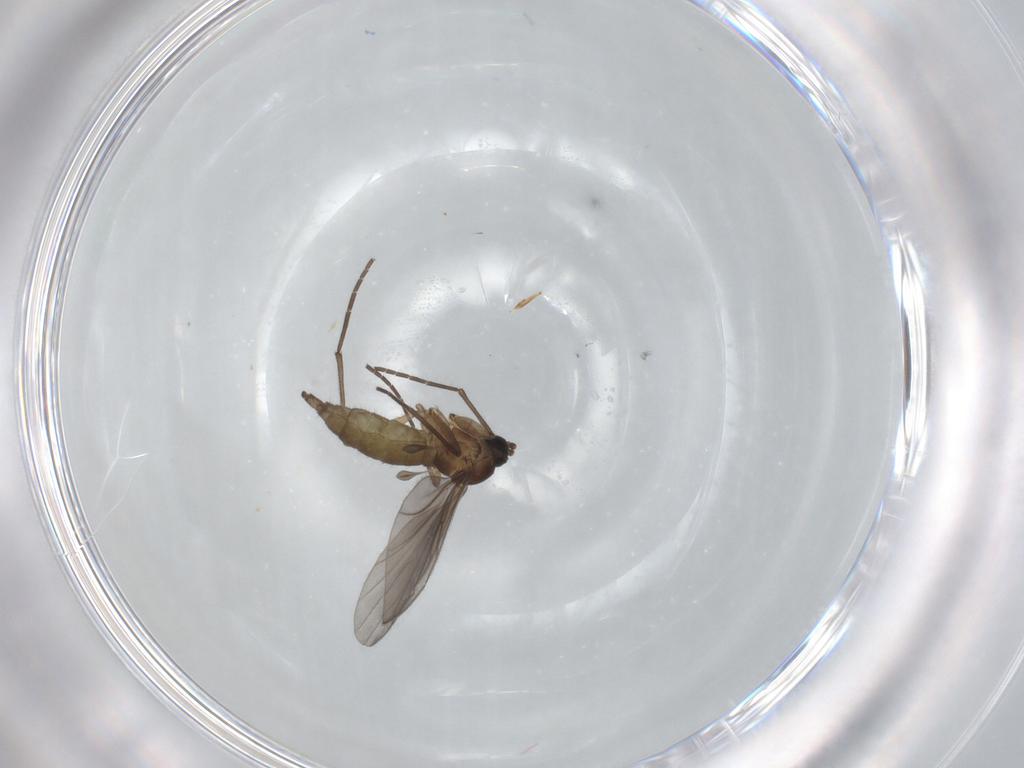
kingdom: Animalia
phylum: Arthropoda
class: Insecta
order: Diptera
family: Sciaridae
